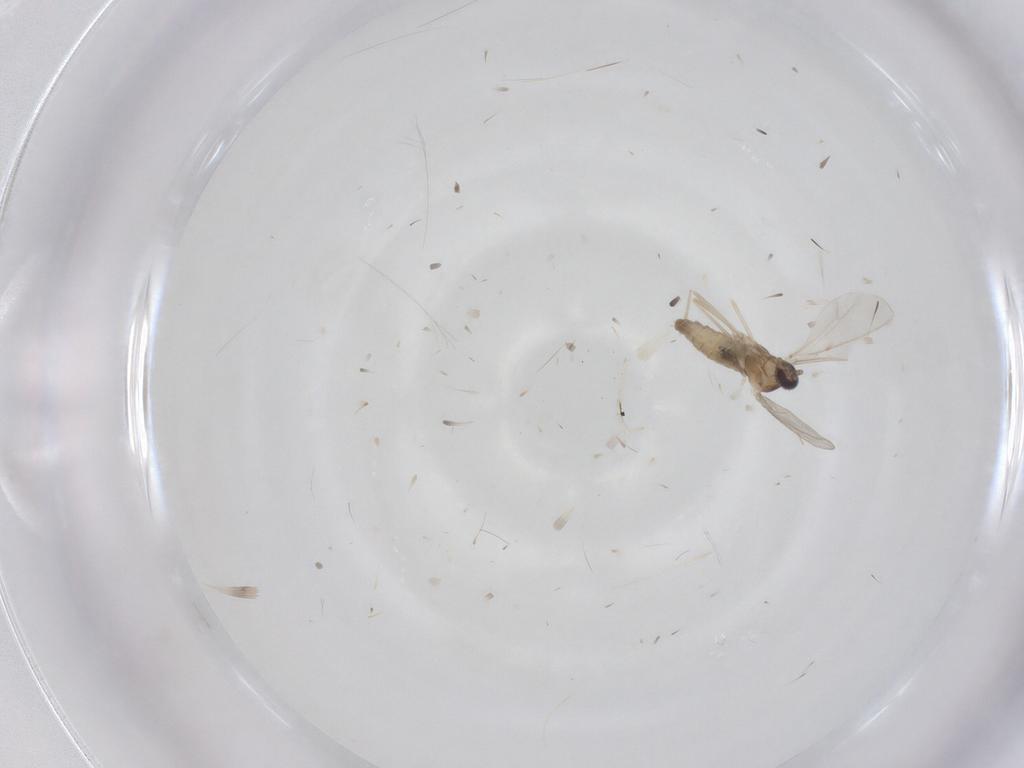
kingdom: Animalia
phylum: Arthropoda
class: Insecta
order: Diptera
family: Cecidomyiidae
